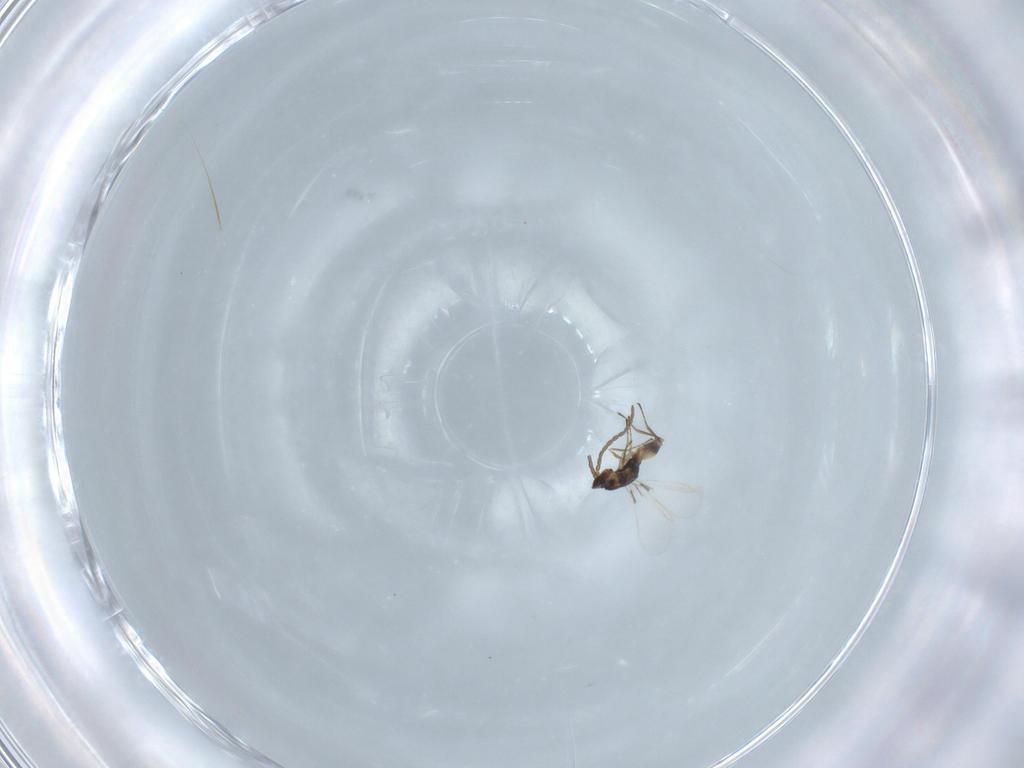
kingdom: Animalia
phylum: Arthropoda
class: Insecta
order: Hymenoptera
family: Mymaridae
